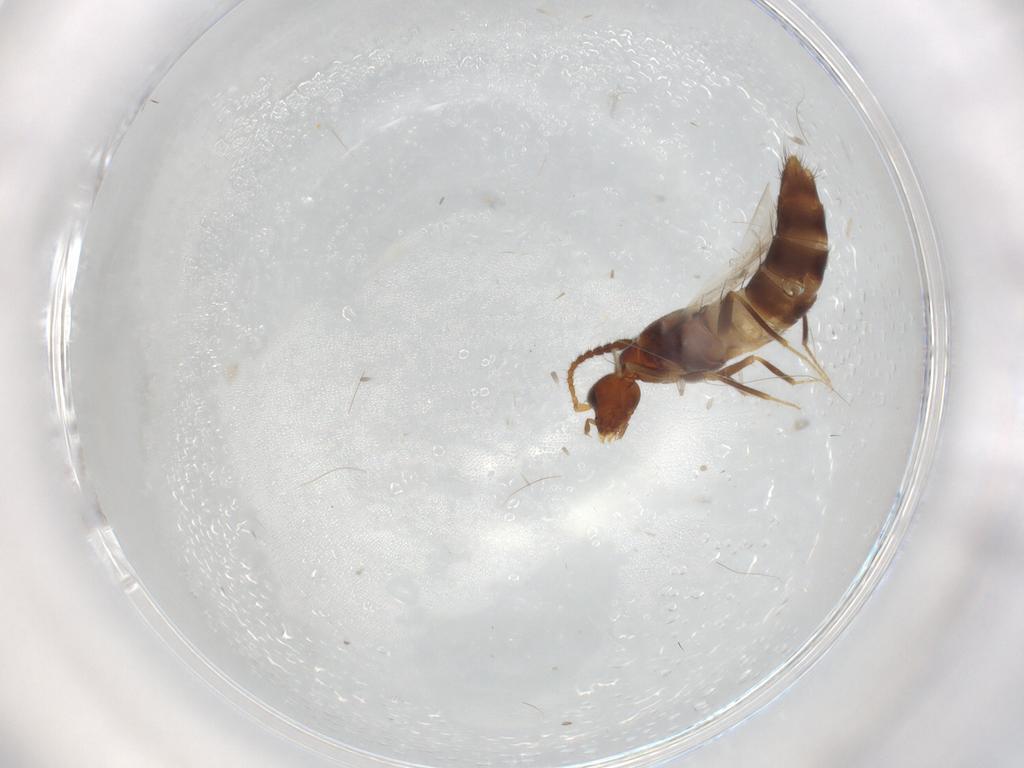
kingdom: Animalia
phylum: Arthropoda
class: Insecta
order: Coleoptera
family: Staphylinidae
